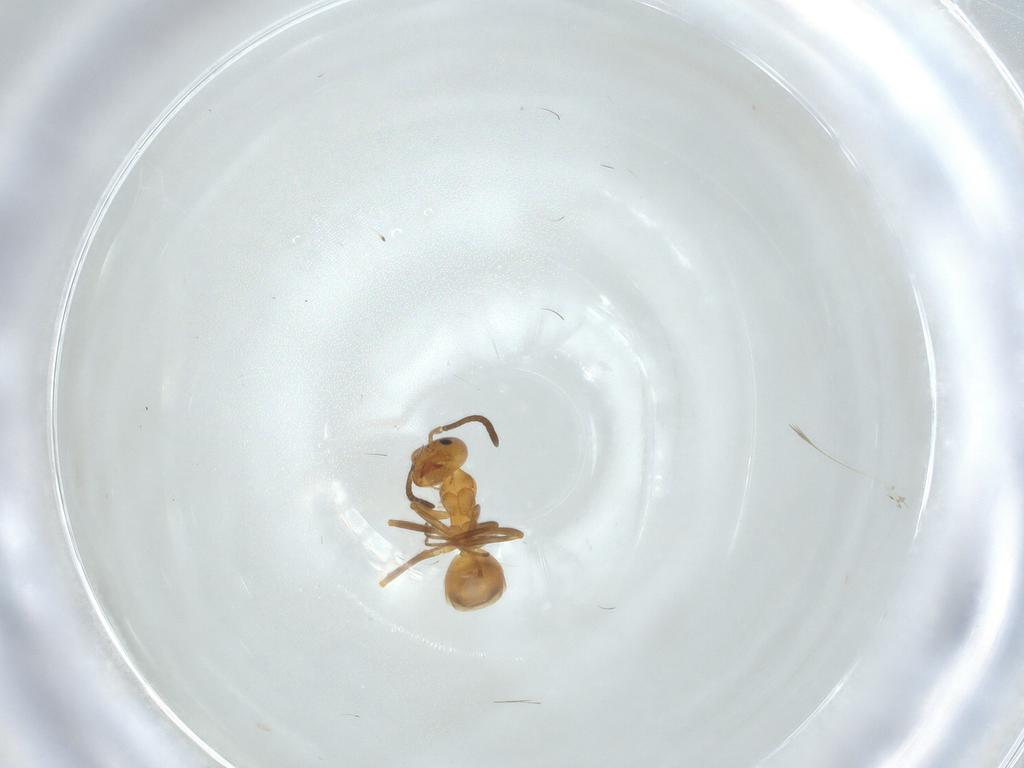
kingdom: Animalia
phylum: Arthropoda
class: Insecta
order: Hymenoptera
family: Formicidae
